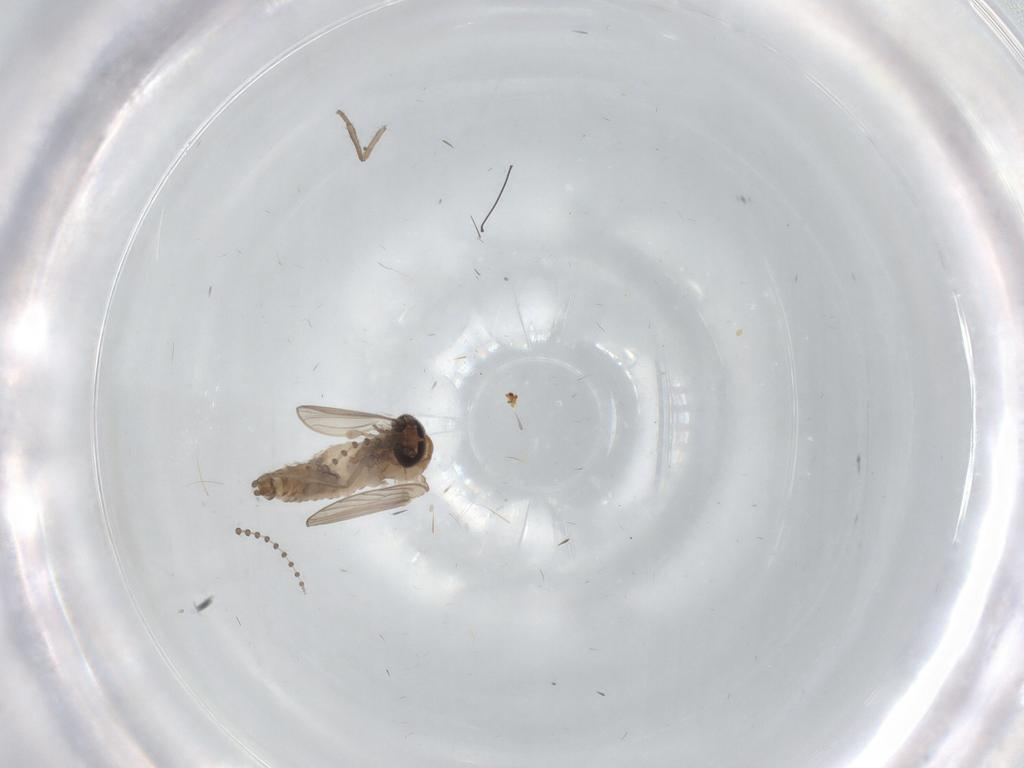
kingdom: Animalia
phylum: Arthropoda
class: Insecta
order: Diptera
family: Psychodidae
